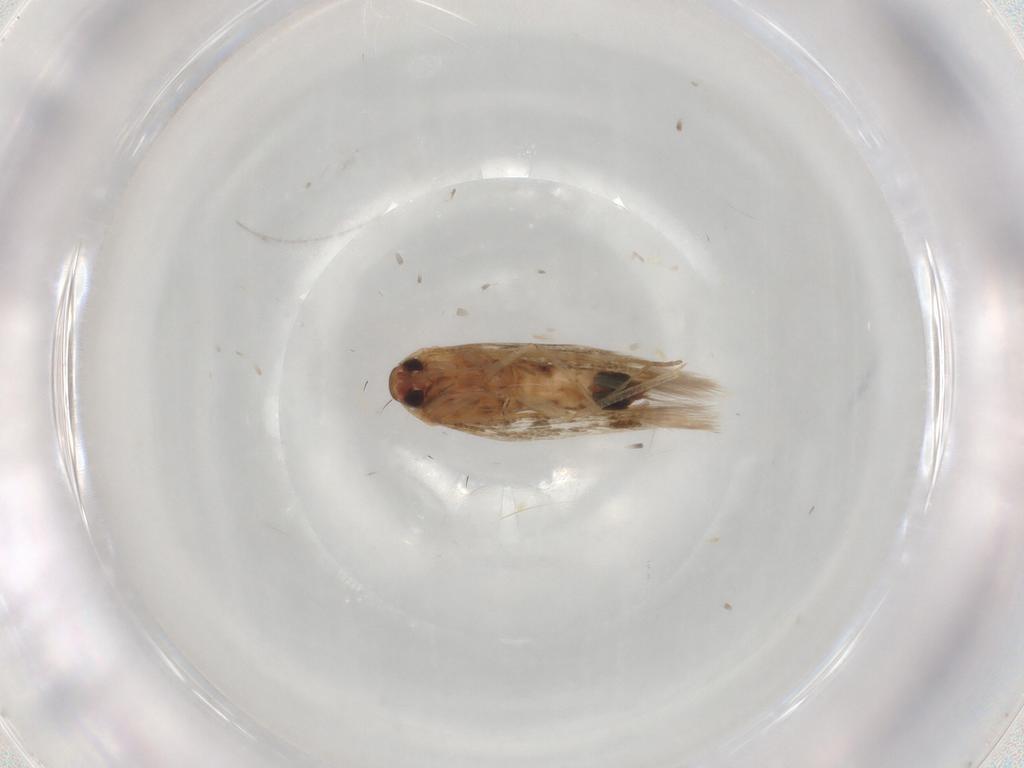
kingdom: Animalia
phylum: Arthropoda
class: Insecta
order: Lepidoptera
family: Cosmopterigidae
